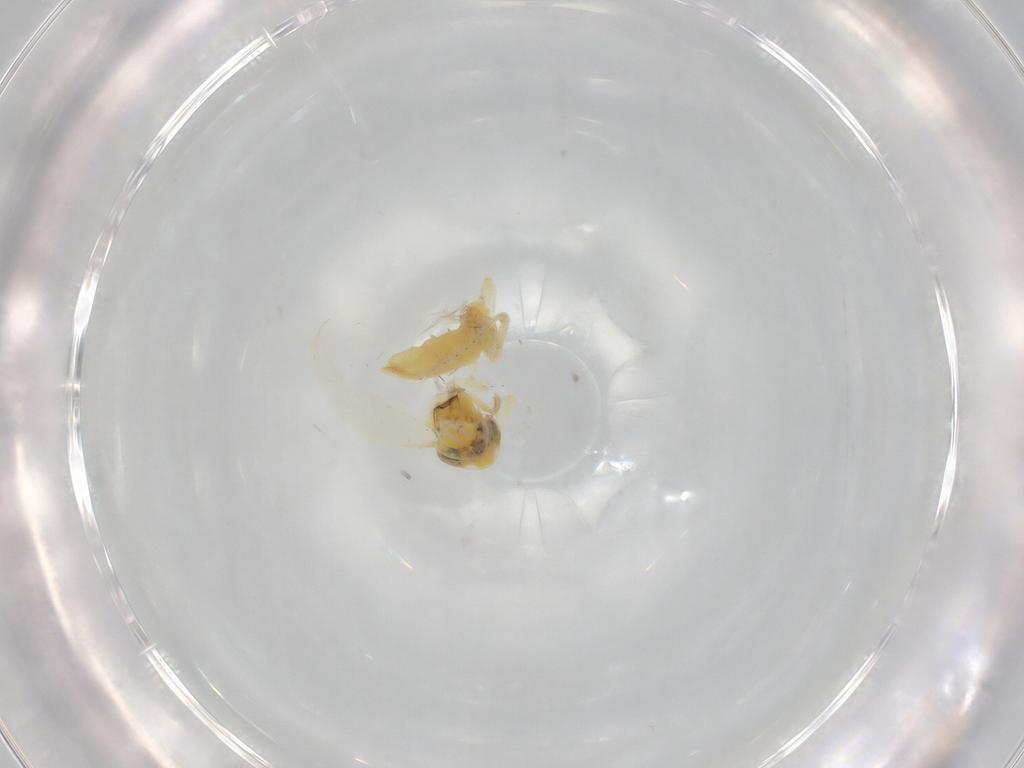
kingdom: Animalia
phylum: Arthropoda
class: Insecta
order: Hemiptera
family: Cicadellidae
